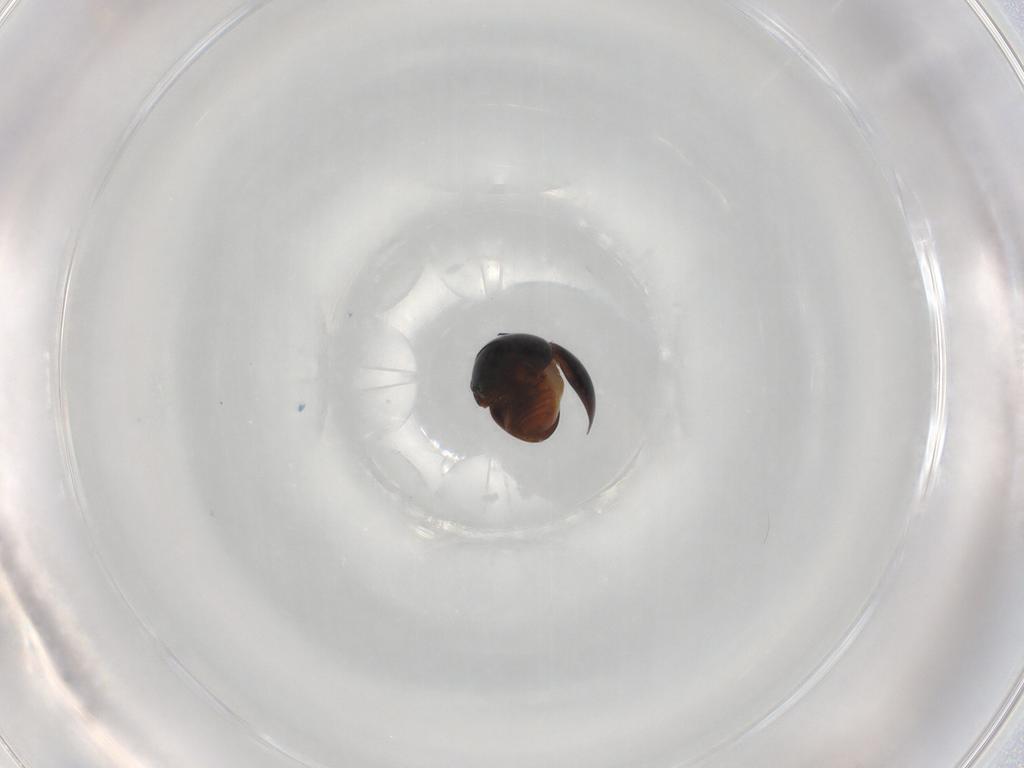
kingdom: Animalia
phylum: Arthropoda
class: Insecta
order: Coleoptera
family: Cybocephalidae
